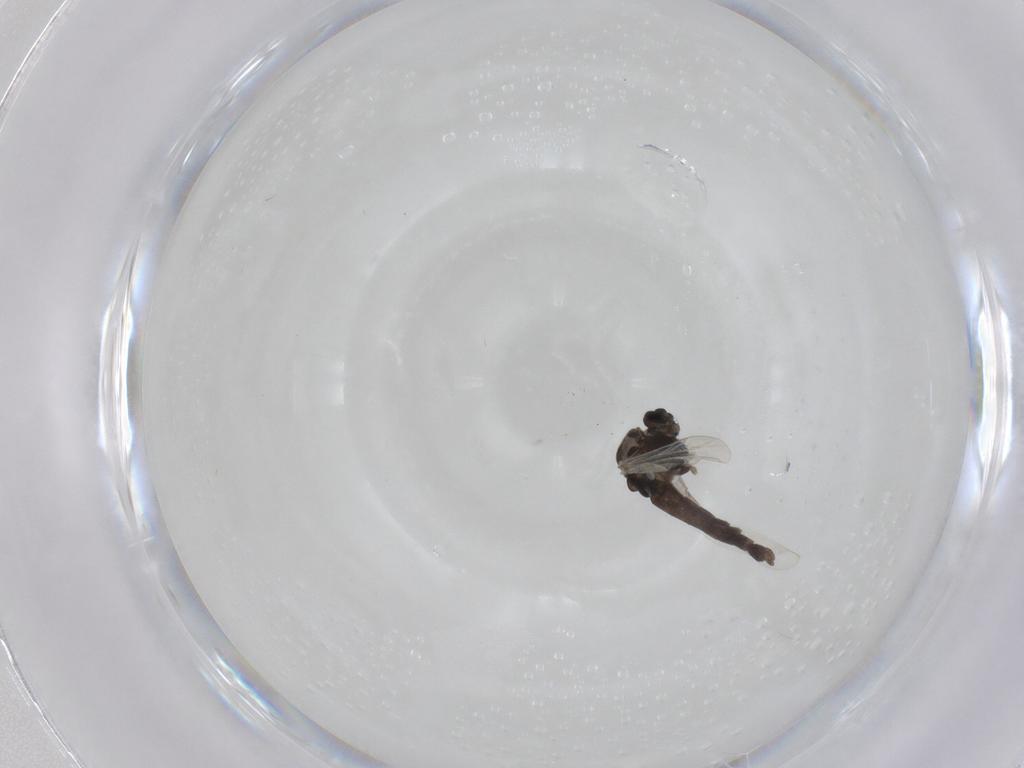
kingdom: Animalia
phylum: Arthropoda
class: Insecta
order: Diptera
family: Chironomidae
